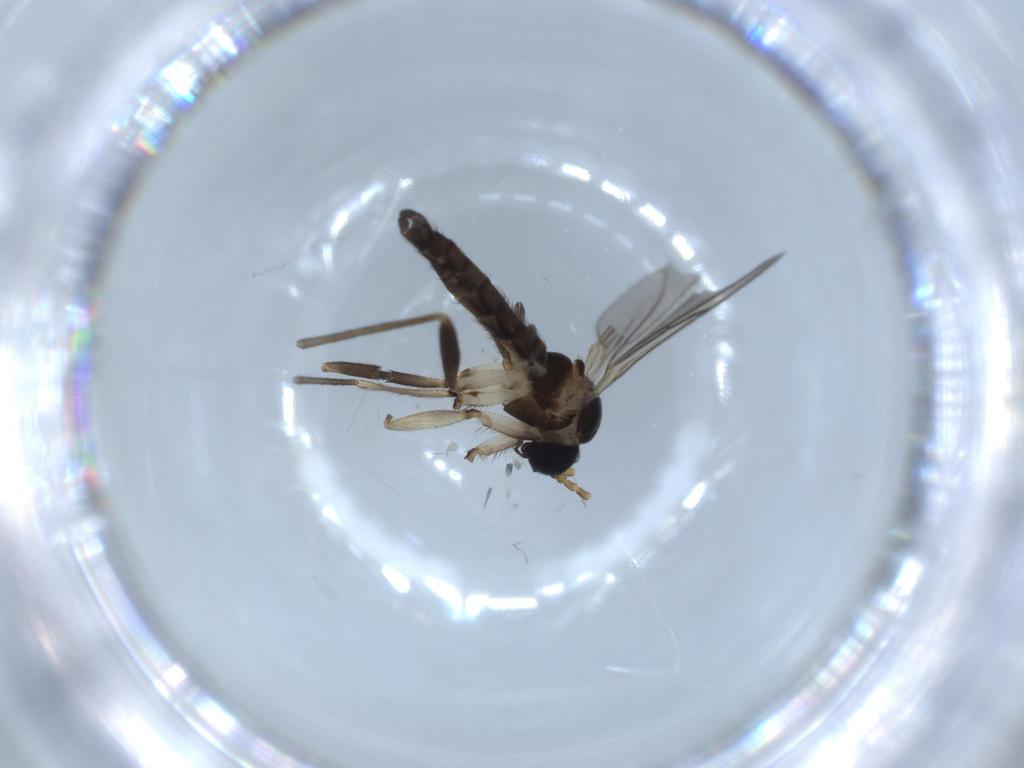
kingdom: Animalia
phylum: Arthropoda
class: Insecta
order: Diptera
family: Sciaridae
